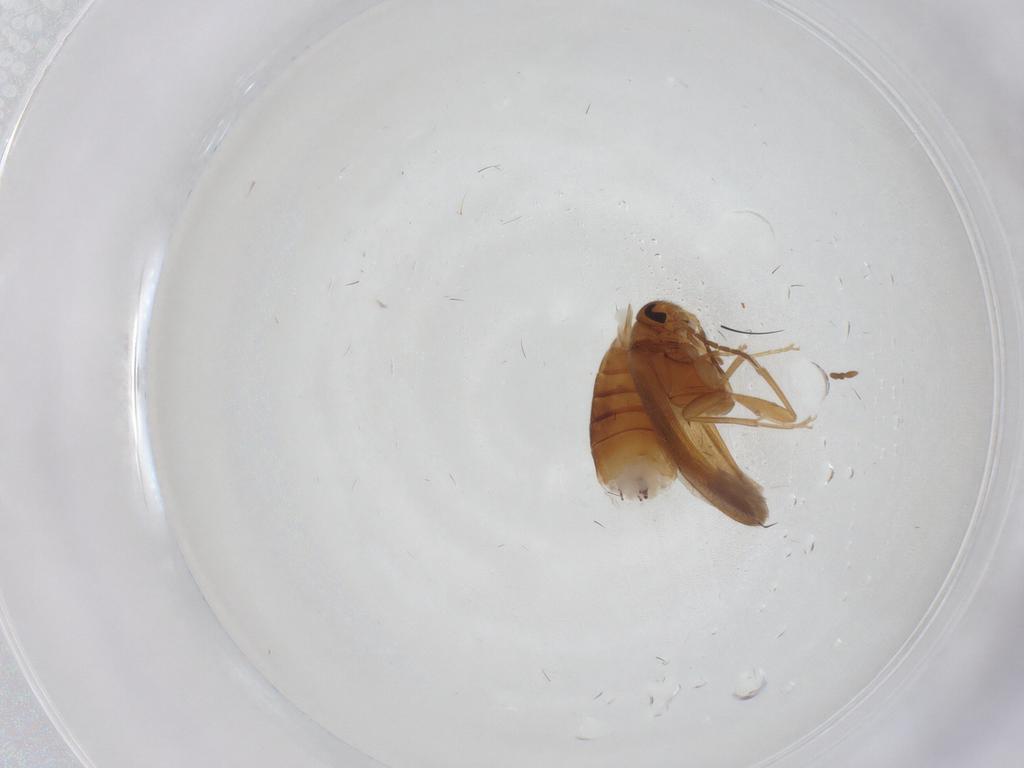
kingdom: Animalia
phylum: Arthropoda
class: Insecta
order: Coleoptera
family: Scraptiidae
